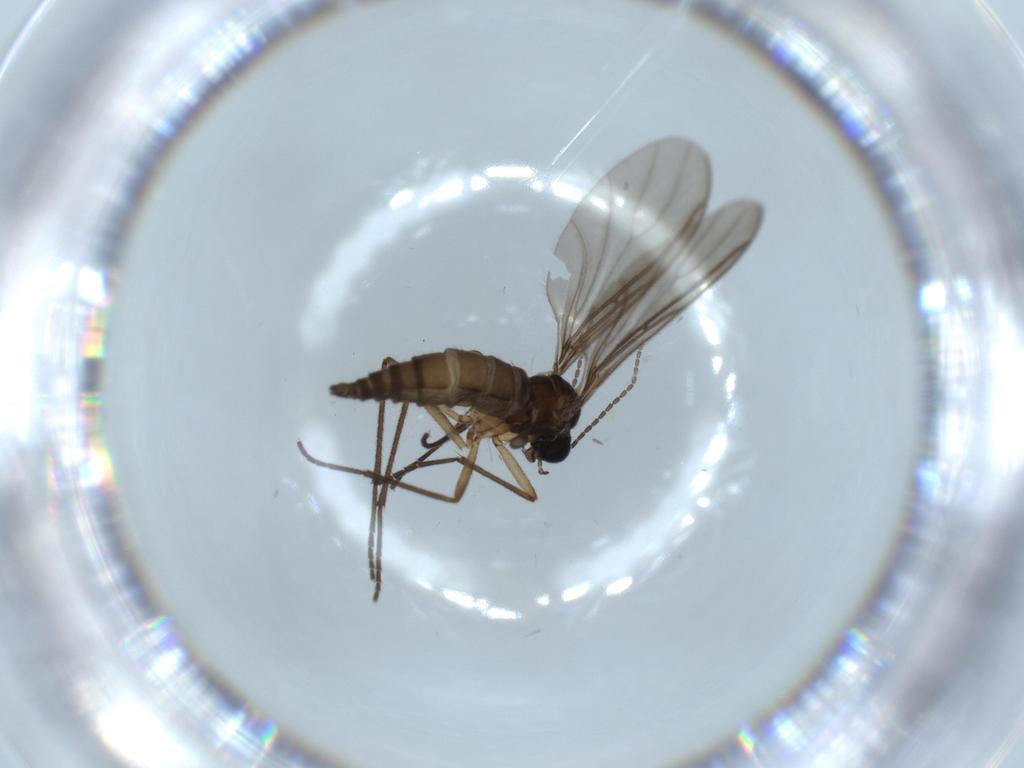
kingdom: Animalia
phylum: Arthropoda
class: Insecta
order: Diptera
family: Sciaridae
